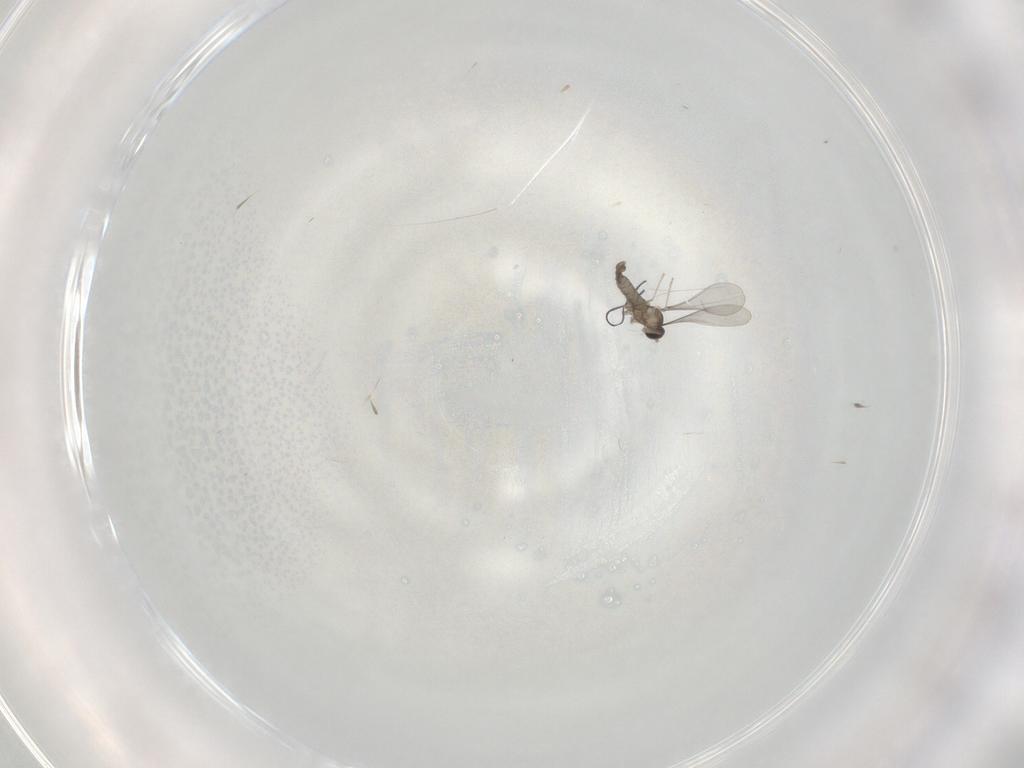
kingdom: Animalia
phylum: Arthropoda
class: Insecta
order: Diptera
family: Cecidomyiidae
